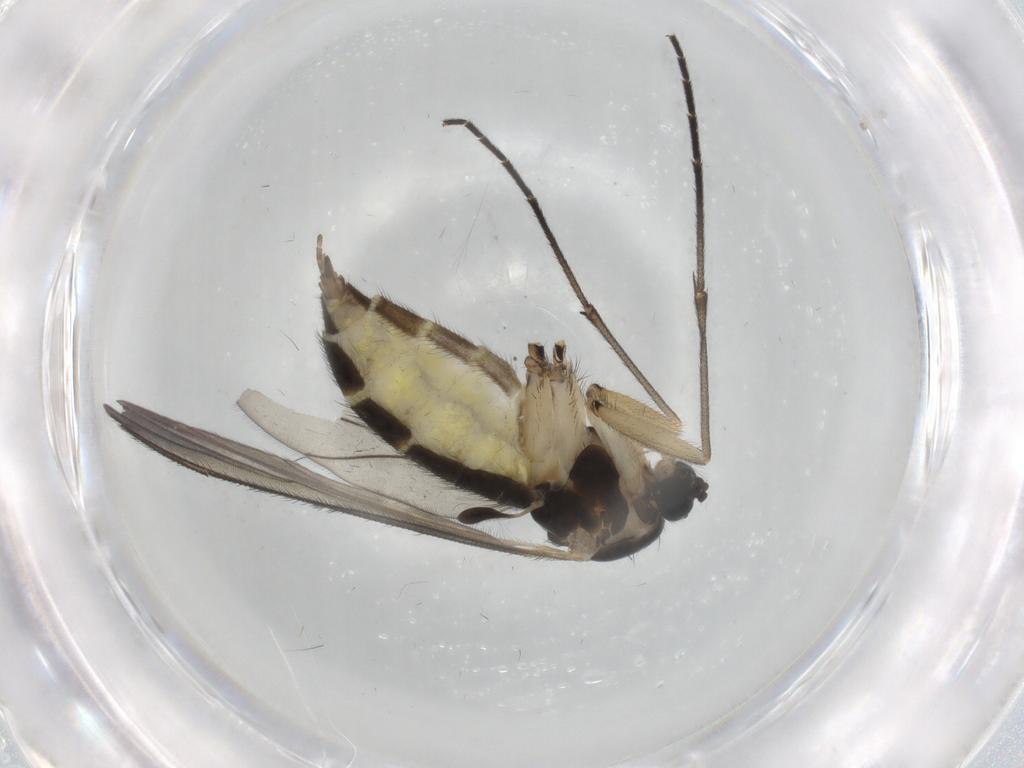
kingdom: Animalia
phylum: Arthropoda
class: Insecta
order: Diptera
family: Sciaridae
